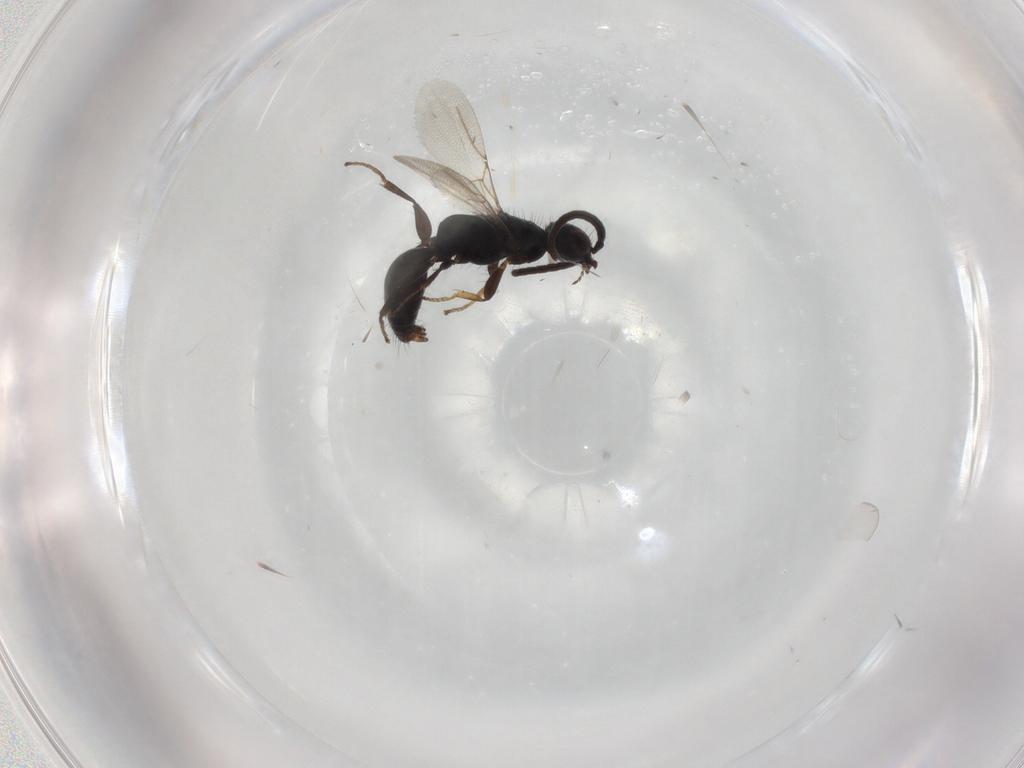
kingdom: Animalia
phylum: Arthropoda
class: Insecta
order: Hymenoptera
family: Bethylidae
